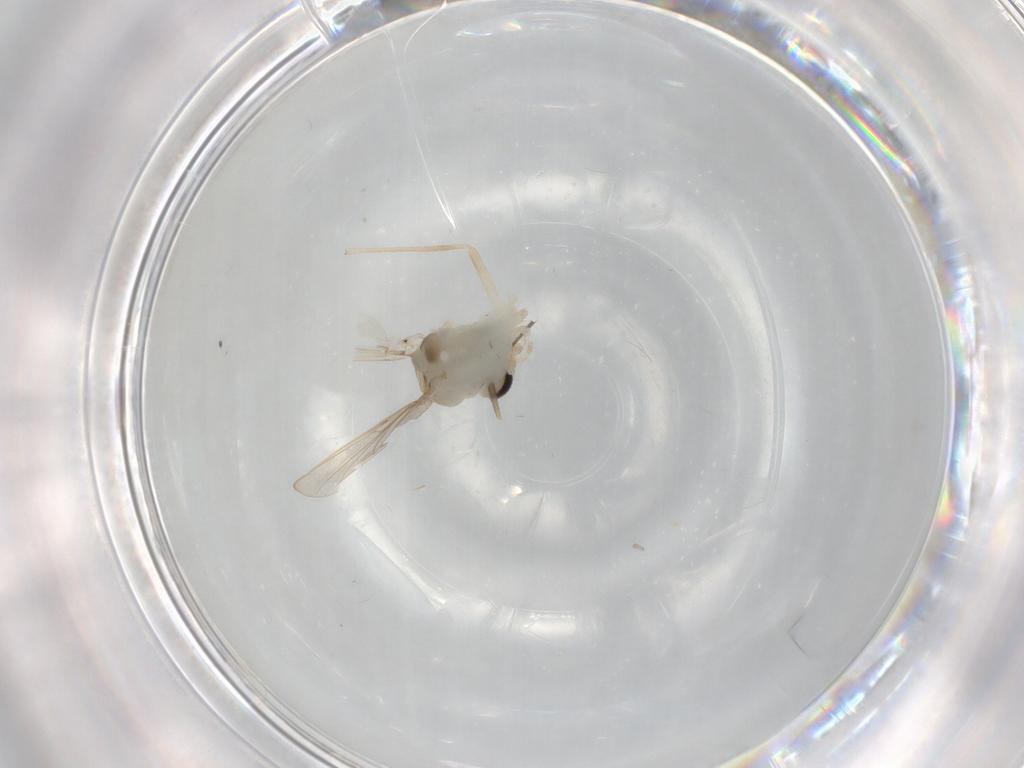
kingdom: Animalia
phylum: Arthropoda
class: Insecta
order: Diptera
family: Chironomidae
